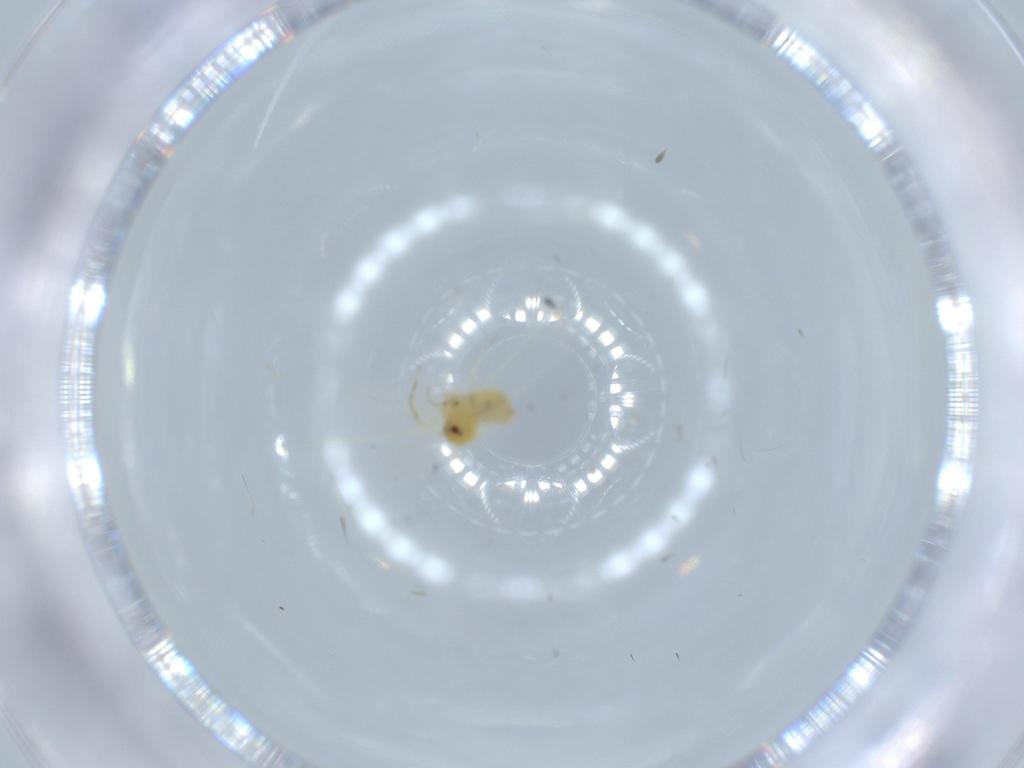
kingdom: Animalia
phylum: Arthropoda
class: Insecta
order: Hemiptera
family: Aleyrodidae
